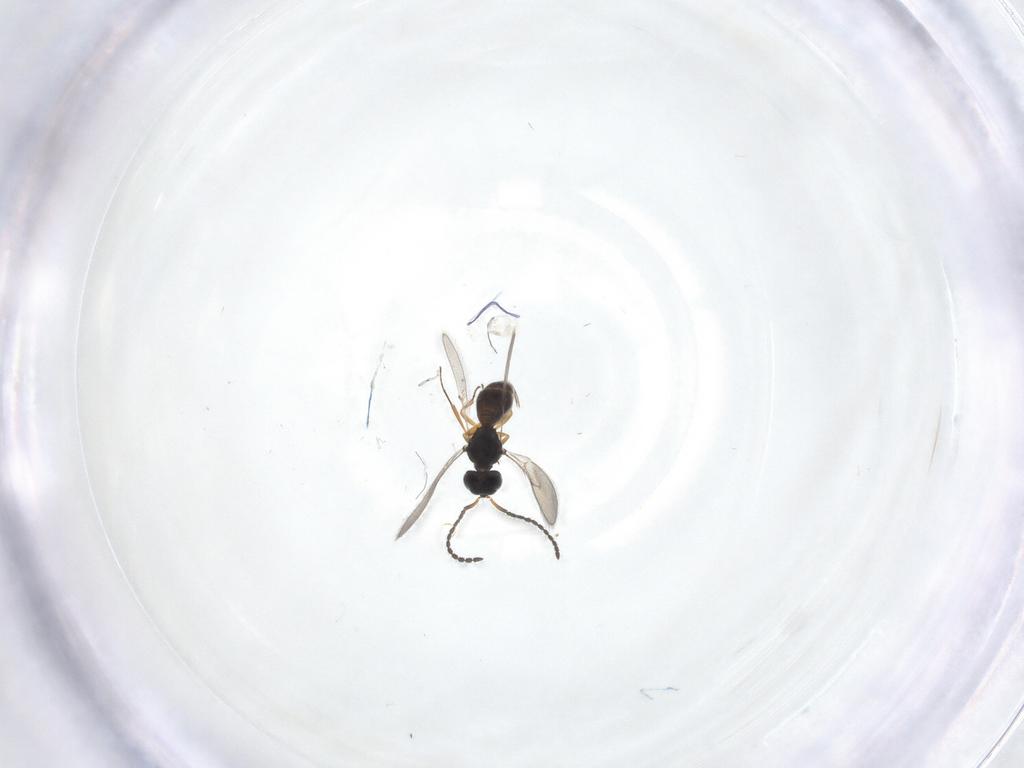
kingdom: Animalia
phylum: Arthropoda
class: Insecta
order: Hymenoptera
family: Scelionidae
